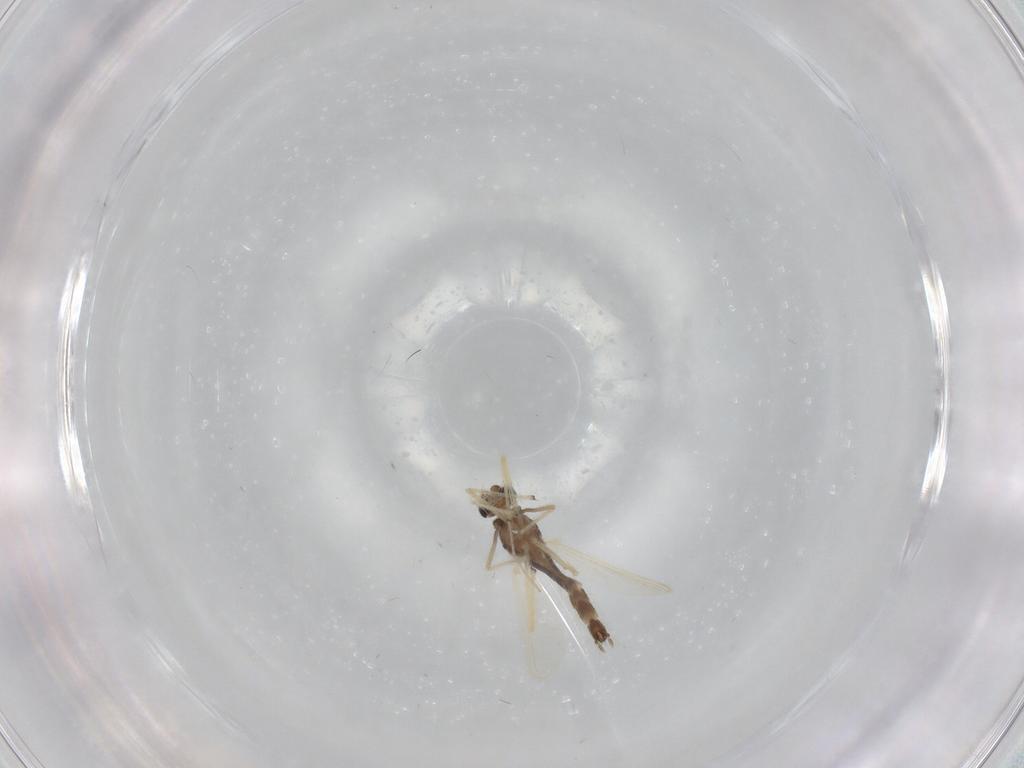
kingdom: Animalia
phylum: Arthropoda
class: Insecta
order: Diptera
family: Chironomidae
